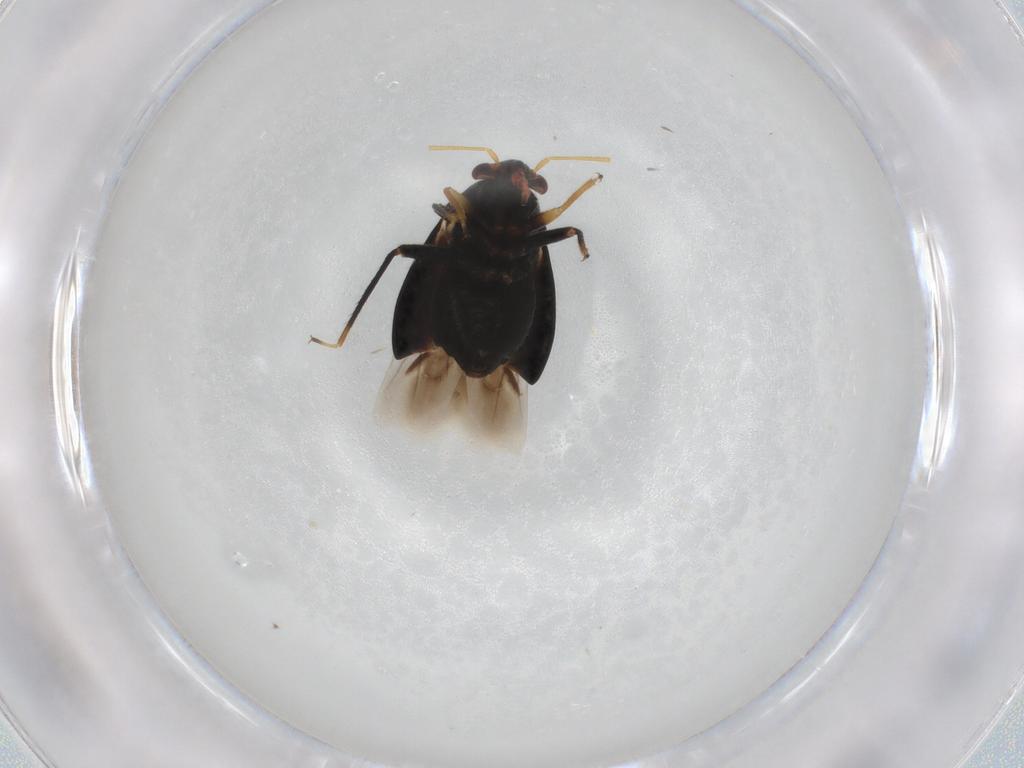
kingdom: Animalia
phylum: Arthropoda
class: Insecta
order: Hemiptera
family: Miridae
